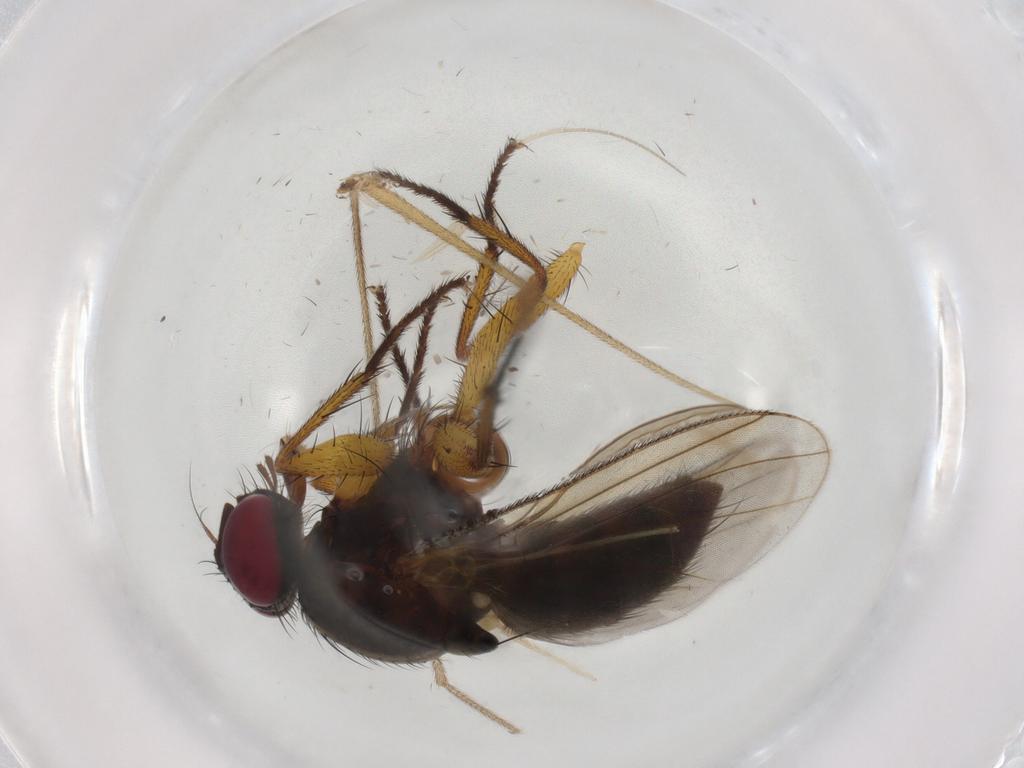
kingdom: Animalia
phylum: Arthropoda
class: Insecta
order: Diptera
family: Muscidae
